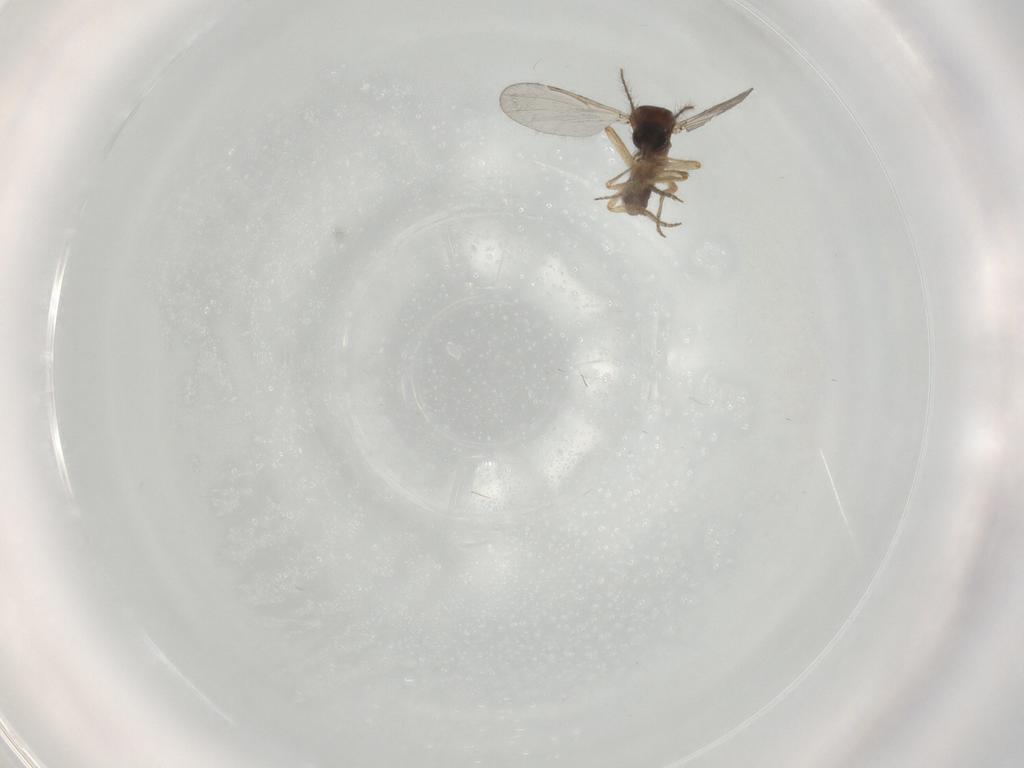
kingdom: Animalia
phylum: Arthropoda
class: Insecta
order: Diptera
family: Ceratopogonidae
